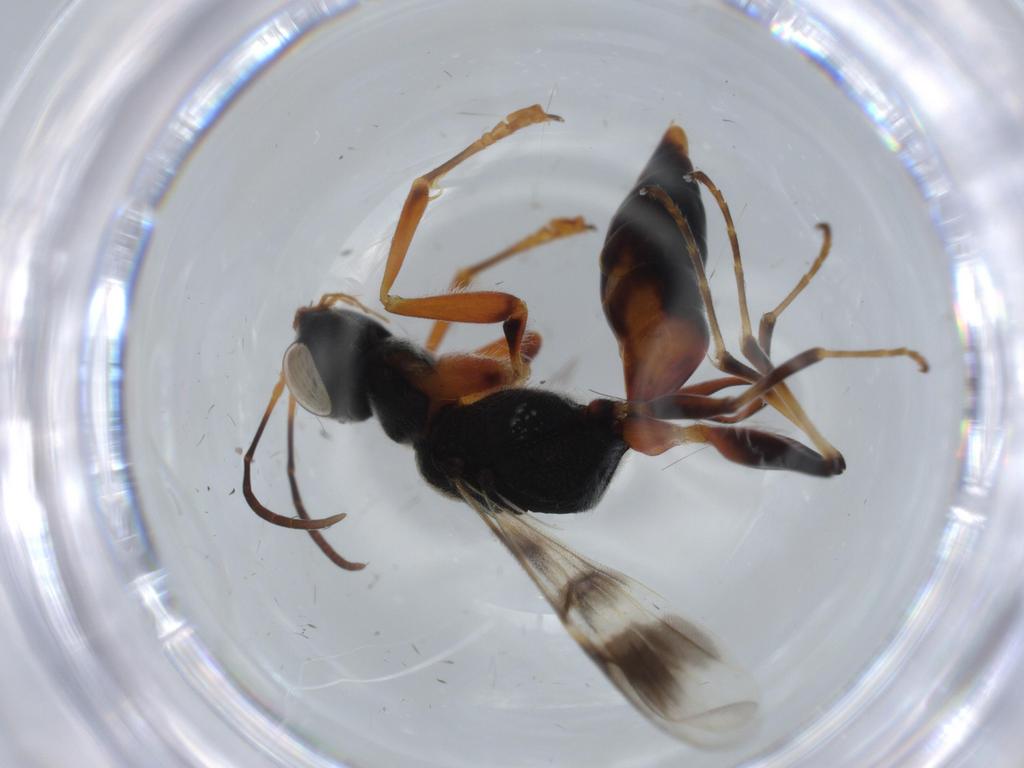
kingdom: Animalia
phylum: Arthropoda
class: Insecta
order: Hymenoptera
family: Dryinidae
